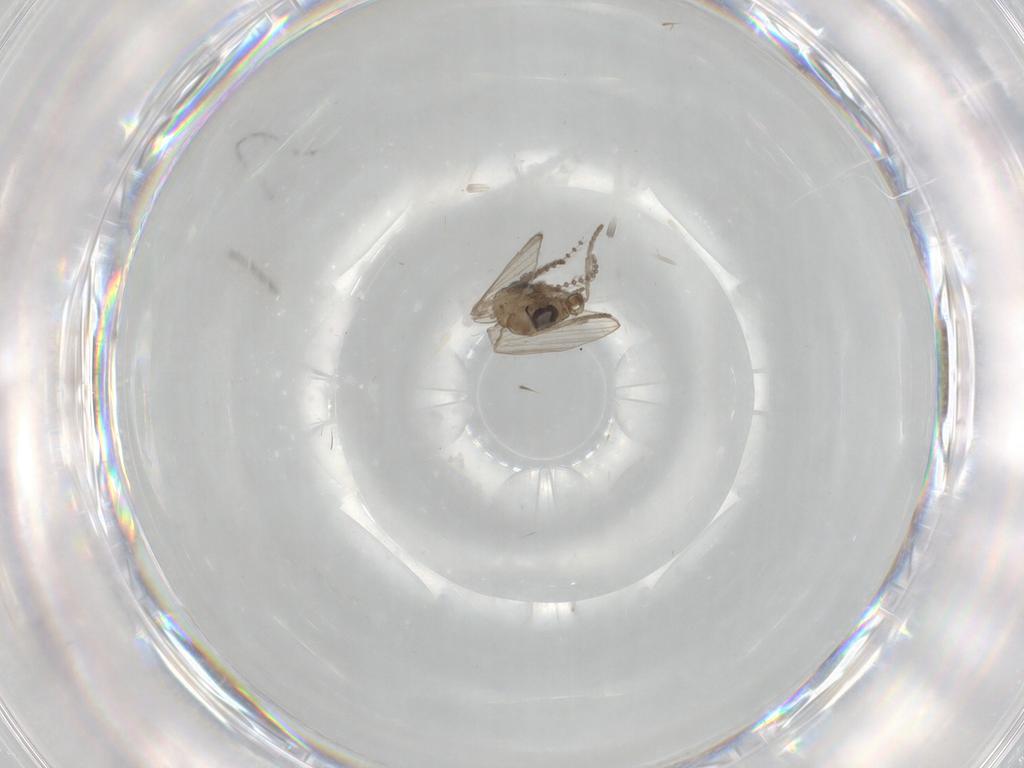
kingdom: Animalia
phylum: Arthropoda
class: Insecta
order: Diptera
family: Psychodidae
